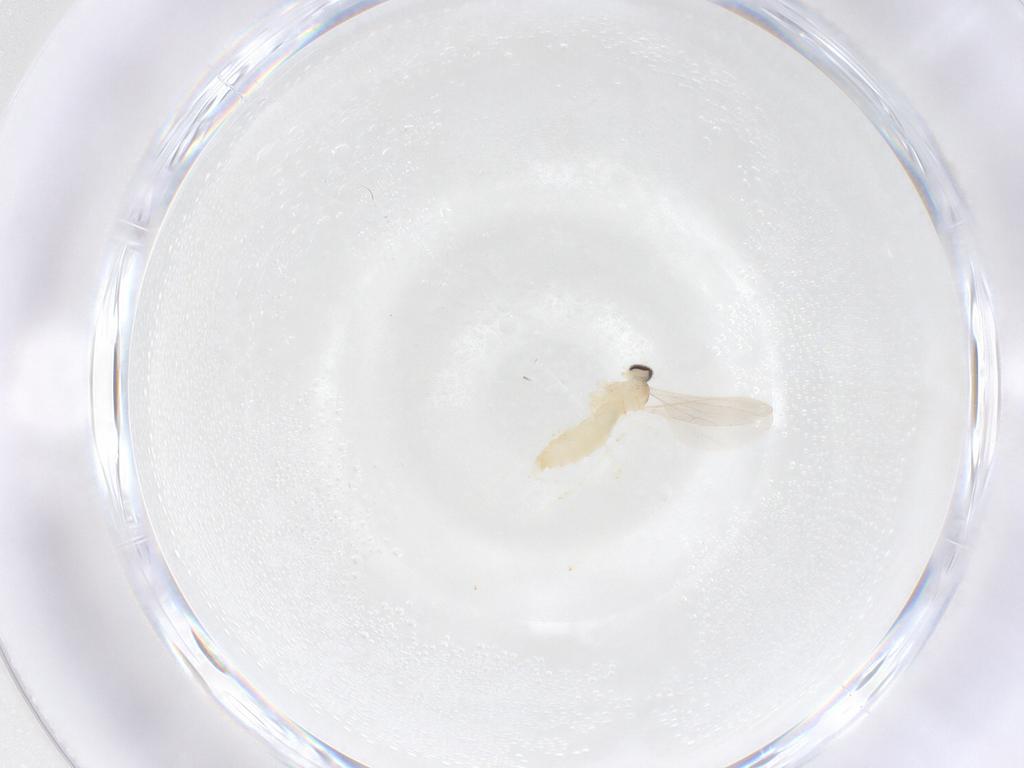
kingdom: Animalia
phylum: Arthropoda
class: Insecta
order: Diptera
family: Cecidomyiidae
